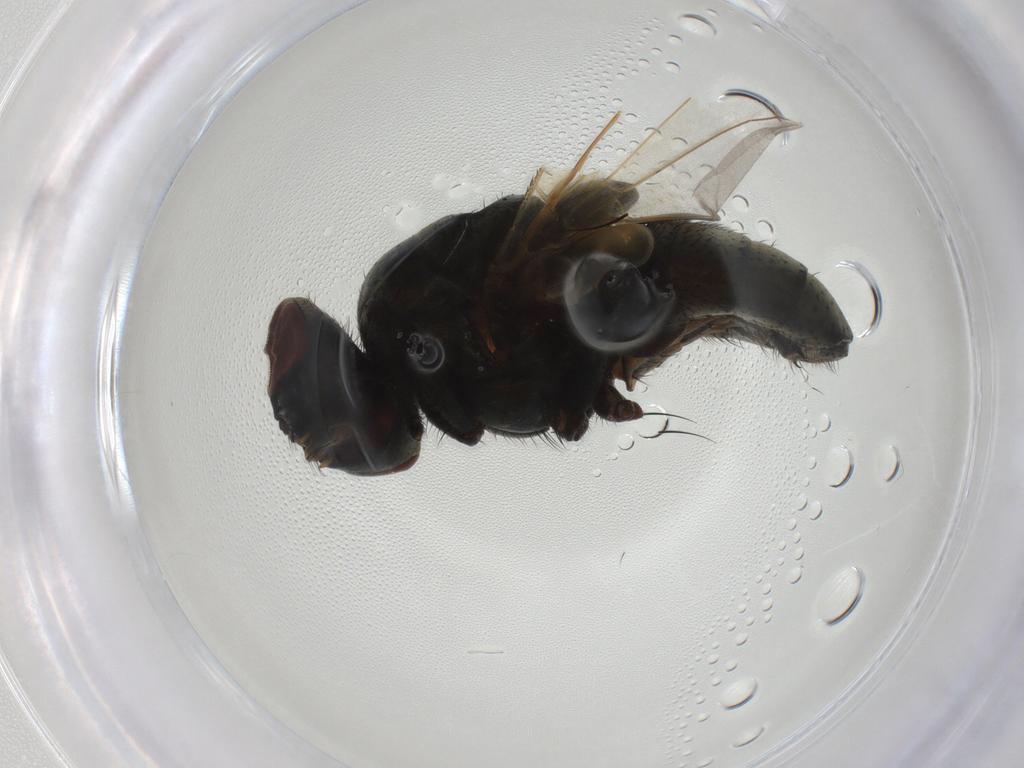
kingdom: Animalia
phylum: Arthropoda
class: Insecta
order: Diptera
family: Muscidae
